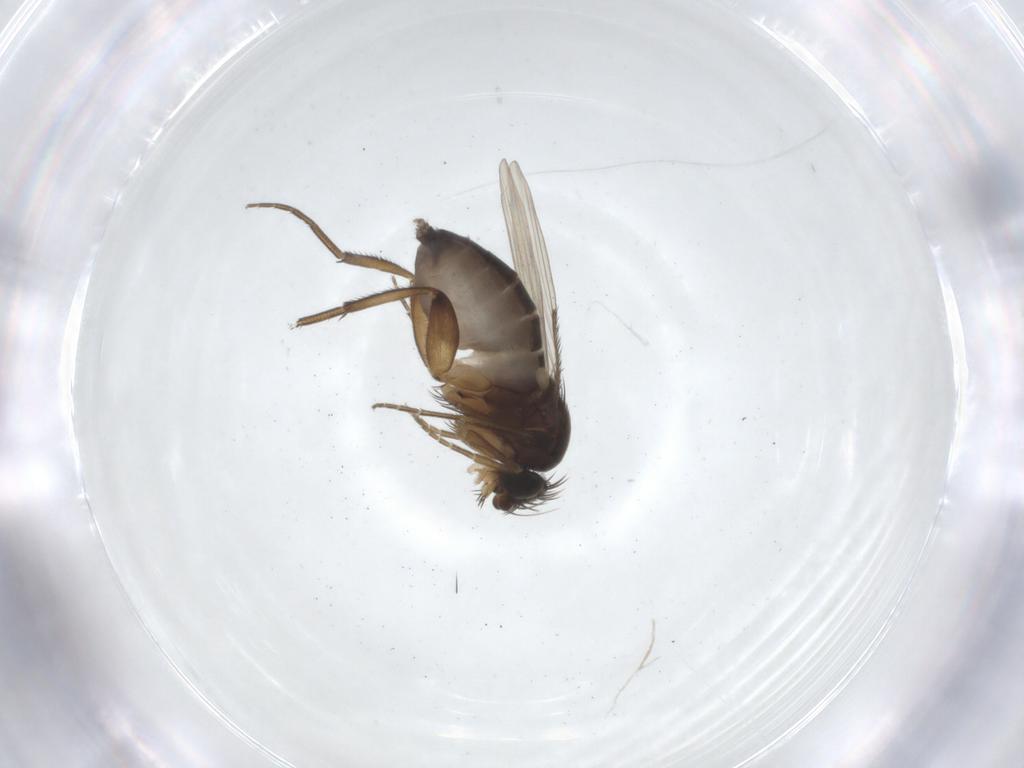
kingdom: Animalia
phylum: Arthropoda
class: Insecta
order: Diptera
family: Phoridae
